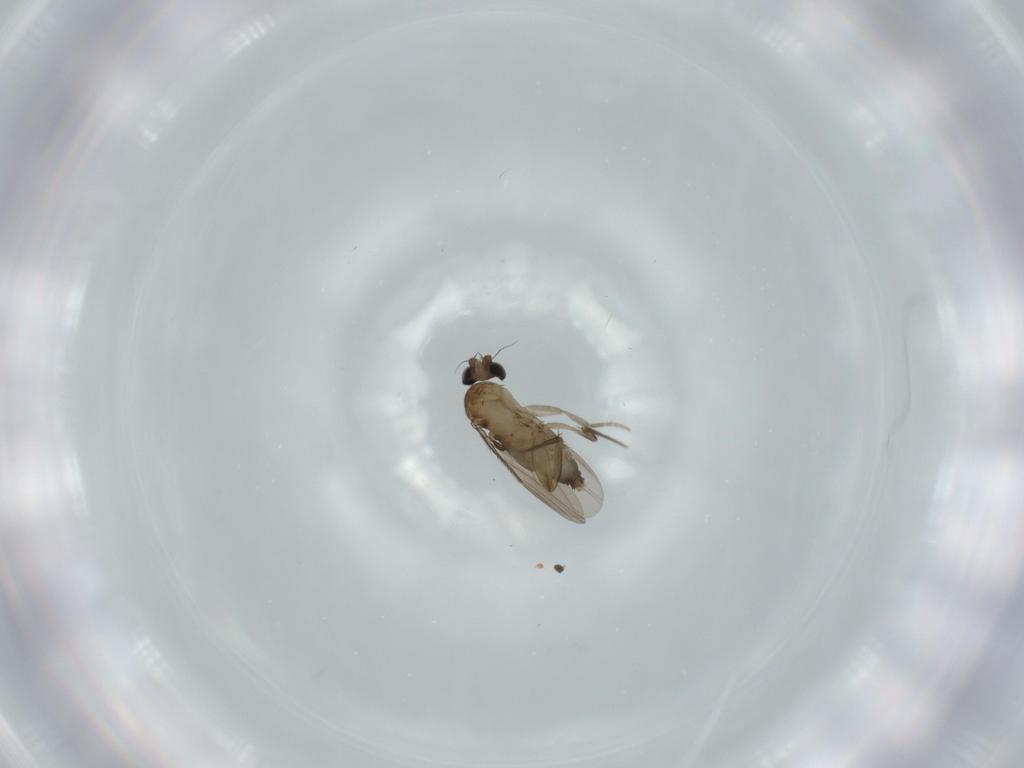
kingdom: Animalia
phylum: Arthropoda
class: Insecta
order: Diptera
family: Phoridae
